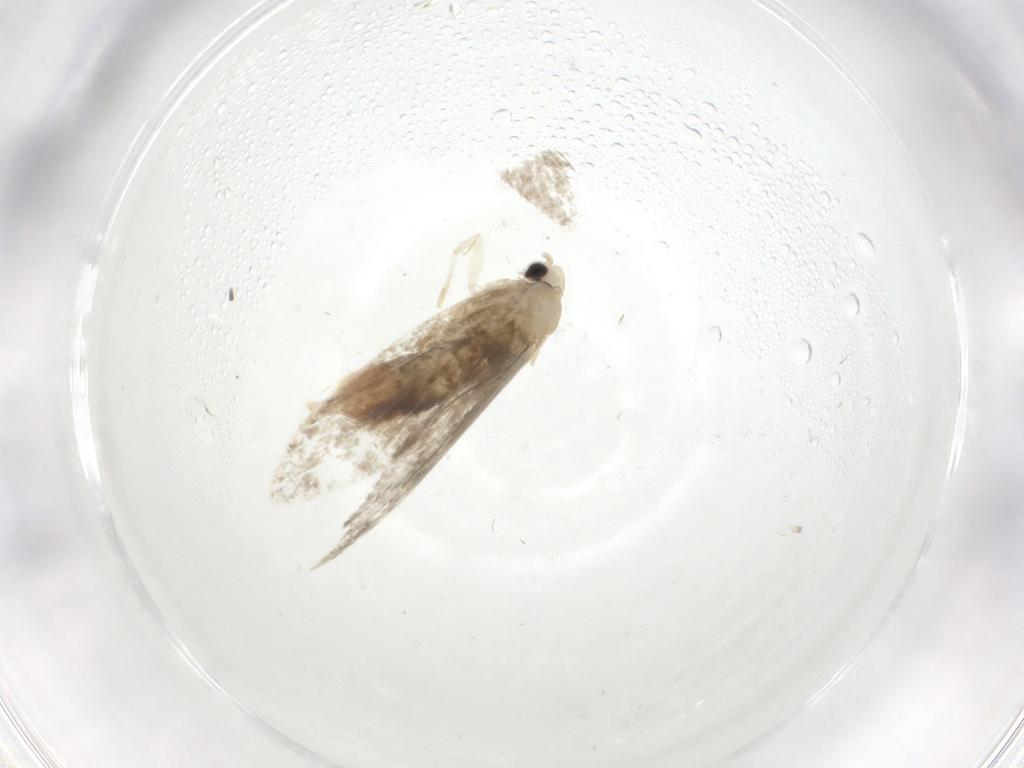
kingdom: Animalia
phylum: Arthropoda
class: Insecta
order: Lepidoptera
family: Psychidae
